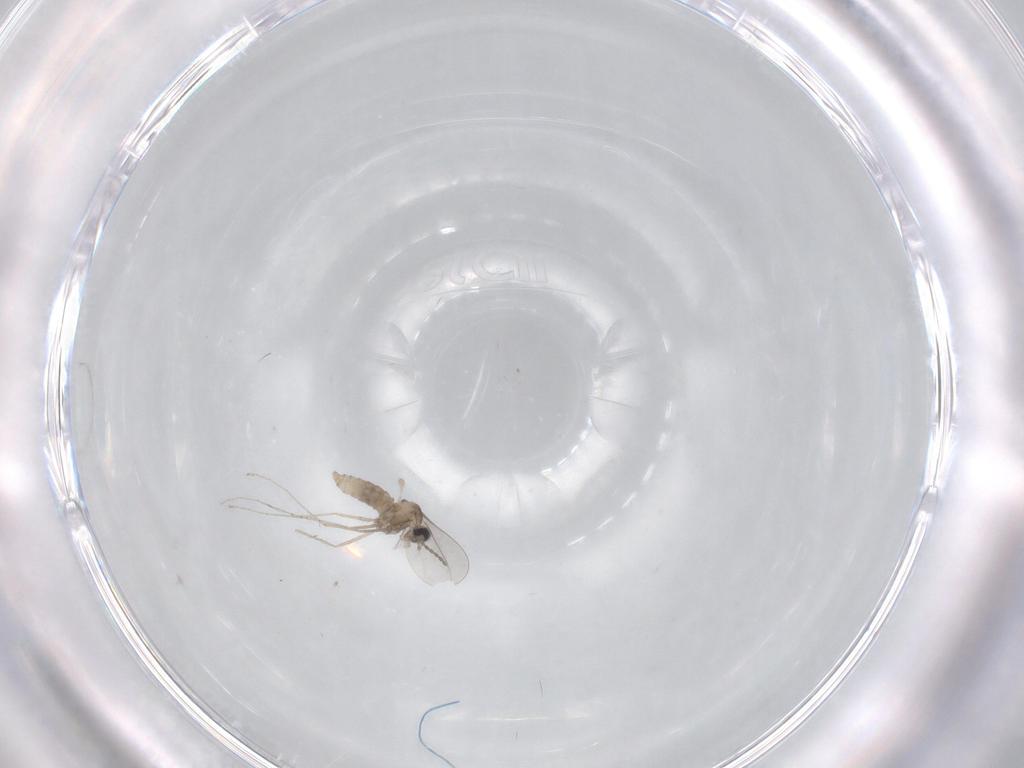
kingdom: Animalia
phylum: Arthropoda
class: Insecta
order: Diptera
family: Cecidomyiidae
